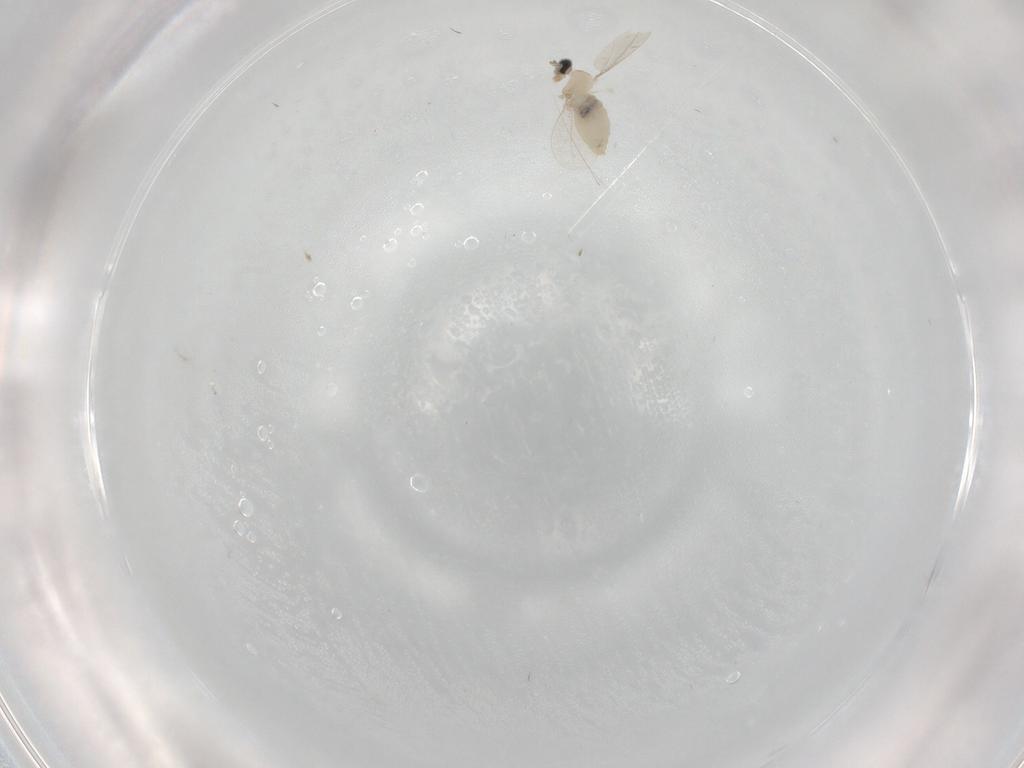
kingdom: Animalia
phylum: Arthropoda
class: Insecta
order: Diptera
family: Cecidomyiidae
